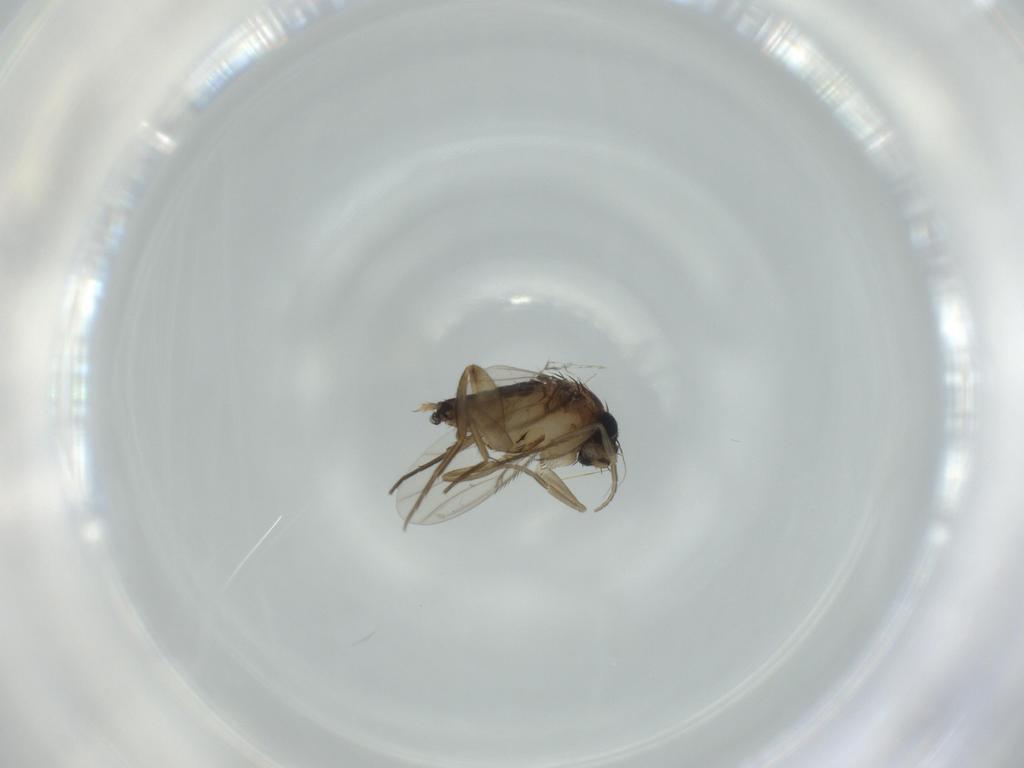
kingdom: Animalia
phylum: Arthropoda
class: Insecta
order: Diptera
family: Phoridae
